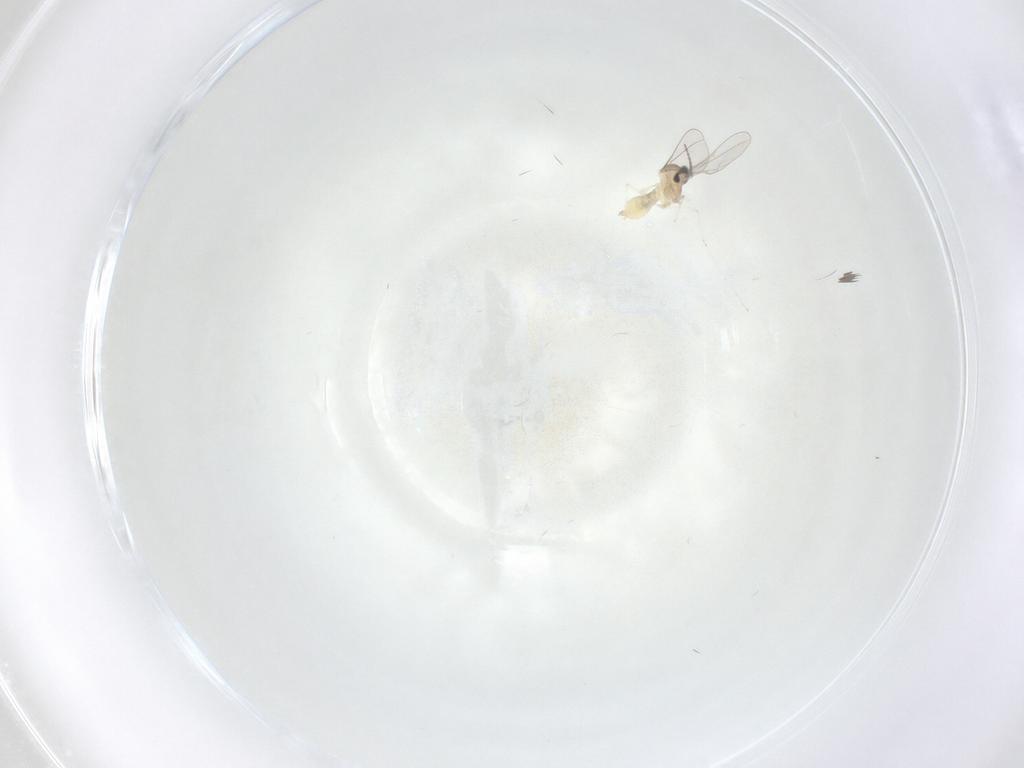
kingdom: Animalia
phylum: Arthropoda
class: Insecta
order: Diptera
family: Cecidomyiidae
